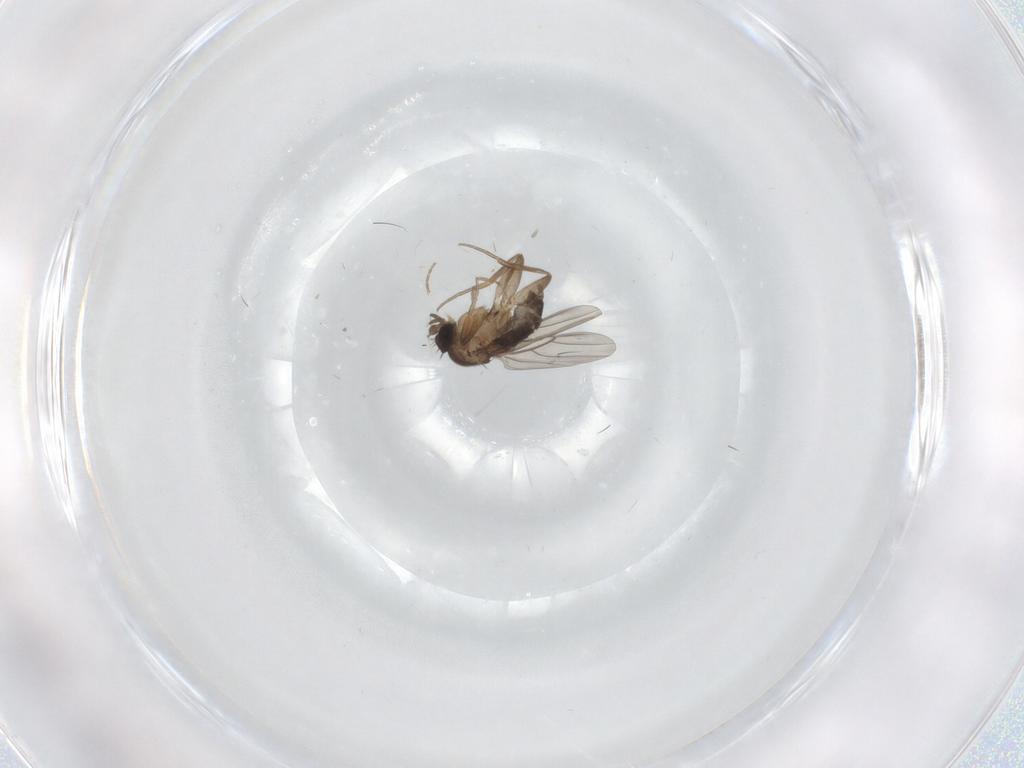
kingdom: Animalia
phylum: Arthropoda
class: Insecta
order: Diptera
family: Phoridae
